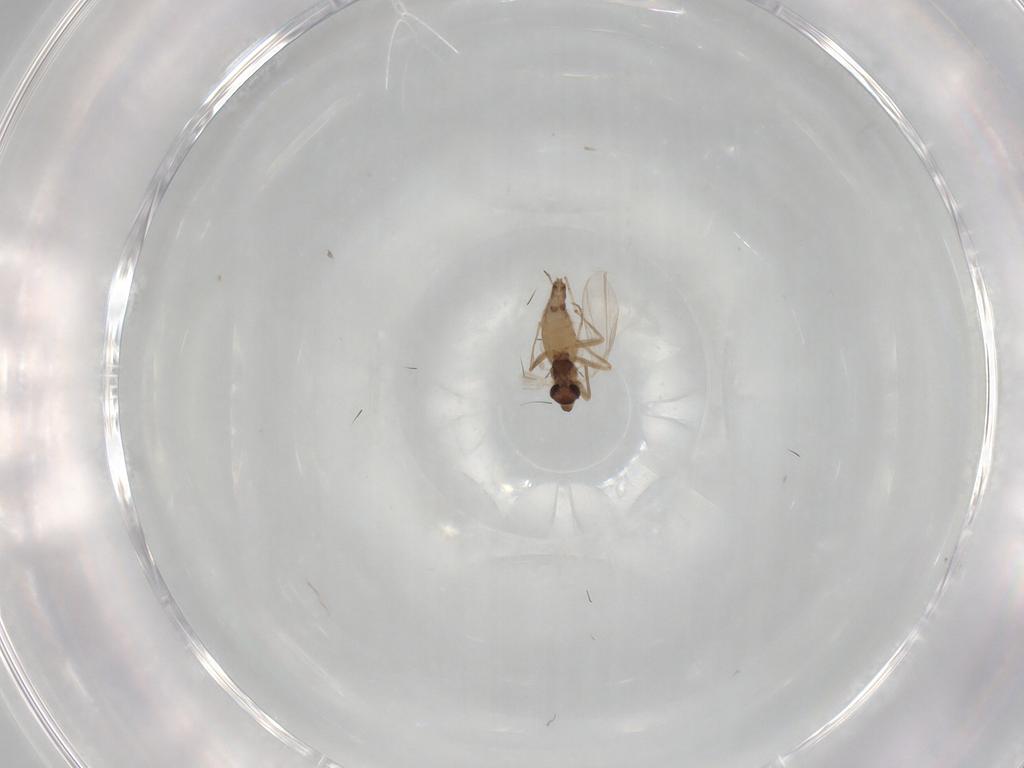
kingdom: Animalia
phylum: Arthropoda
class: Insecta
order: Diptera
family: Chironomidae
